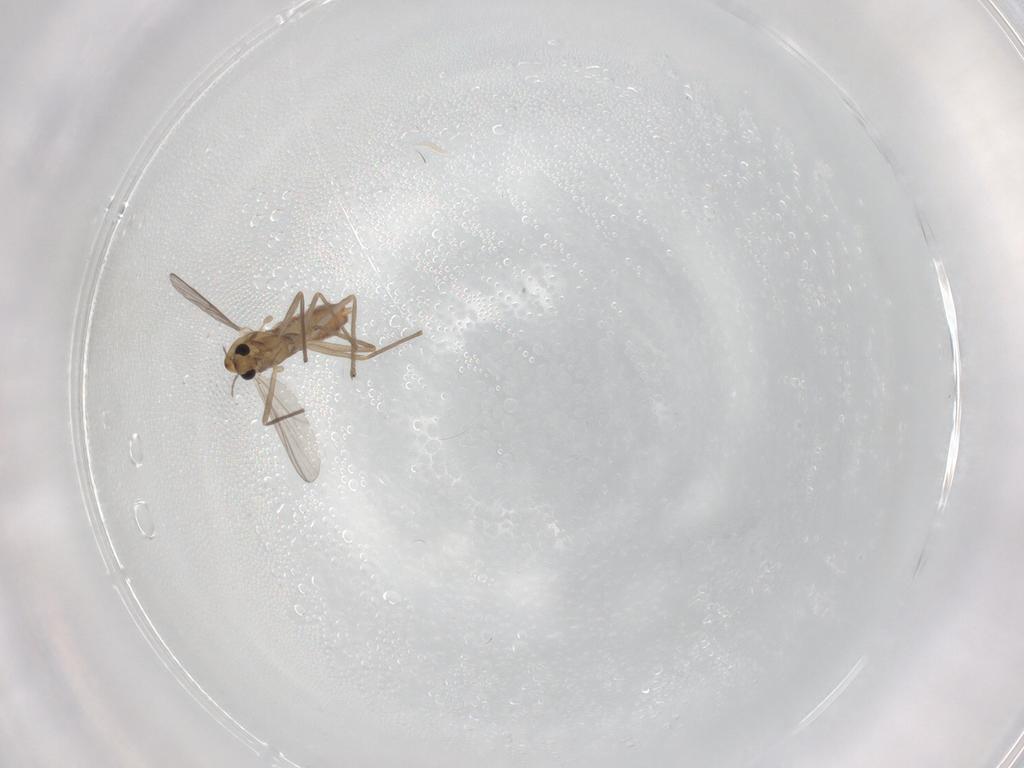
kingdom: Animalia
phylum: Arthropoda
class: Insecta
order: Diptera
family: Chironomidae
